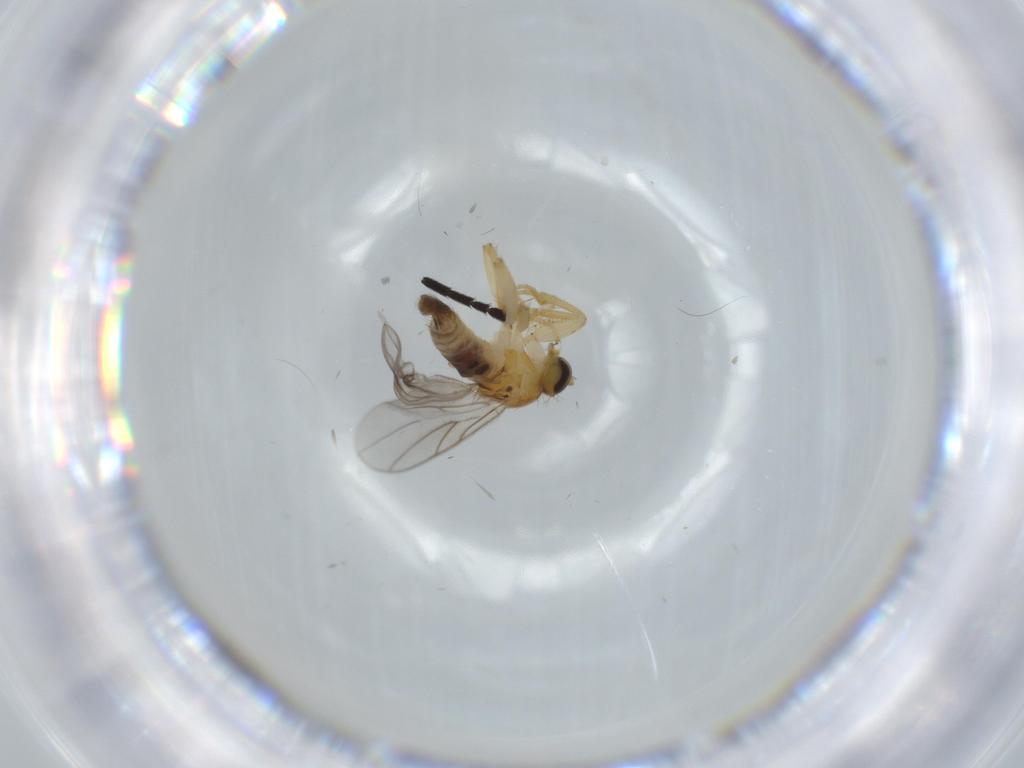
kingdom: Animalia
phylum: Arthropoda
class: Insecta
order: Diptera
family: Hybotidae
